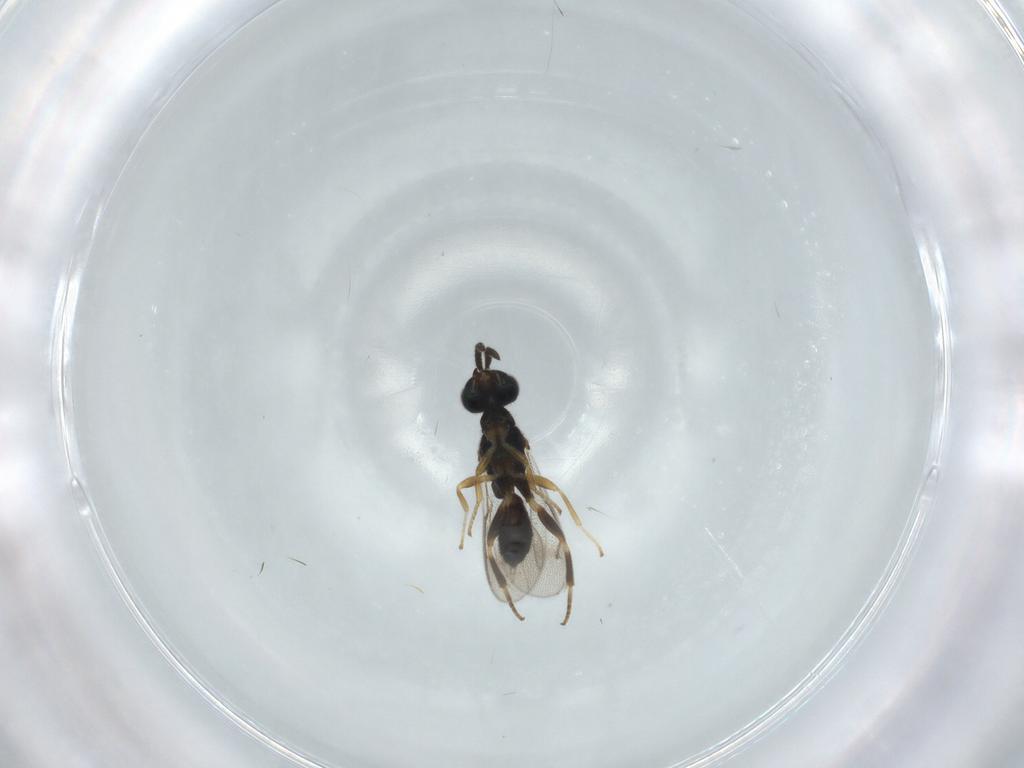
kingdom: Animalia
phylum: Arthropoda
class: Insecta
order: Hymenoptera
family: Cleonyminae
